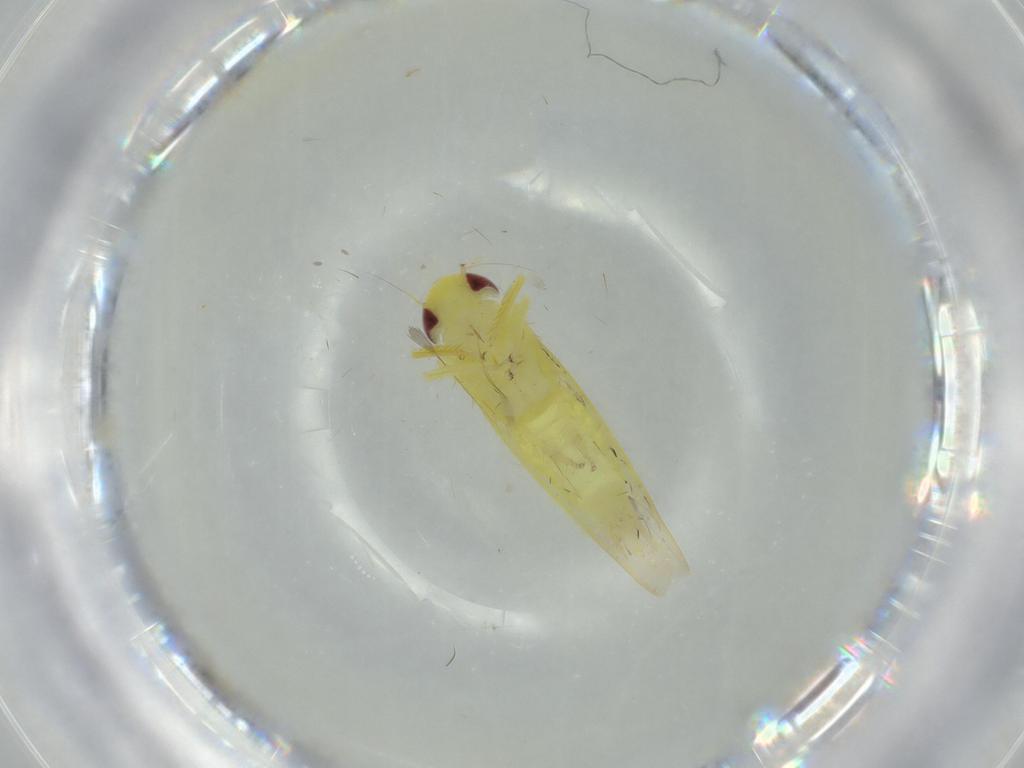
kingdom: Animalia
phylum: Arthropoda
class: Insecta
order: Hemiptera
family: Cicadellidae
